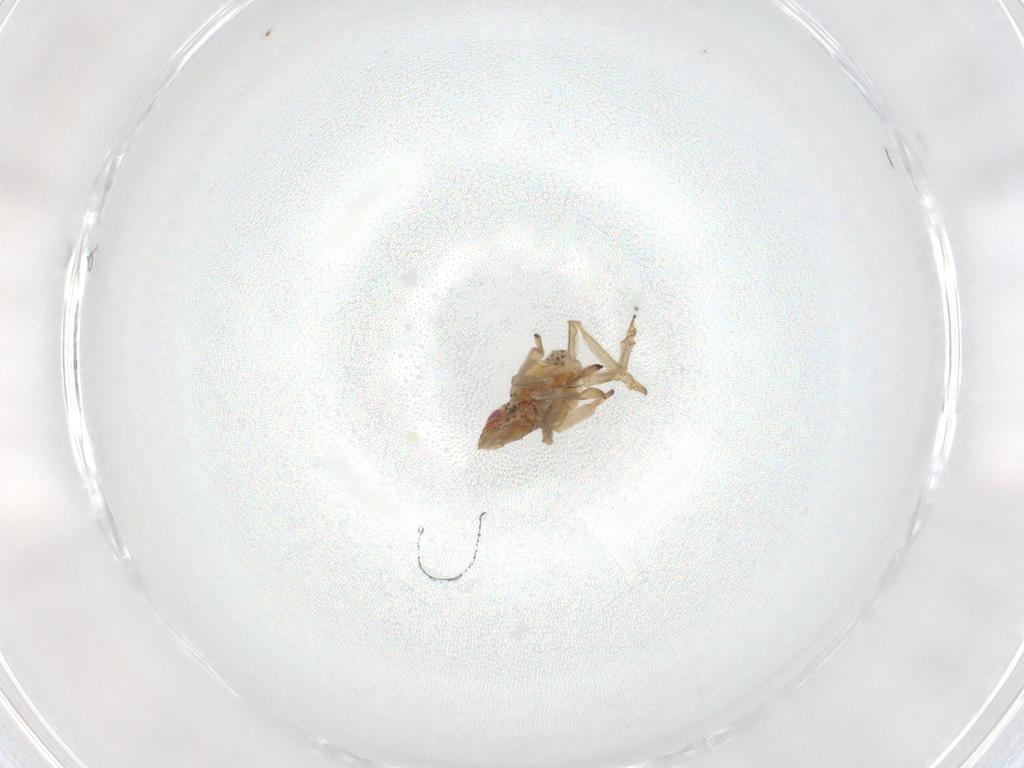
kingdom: Animalia
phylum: Arthropoda
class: Insecta
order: Hemiptera
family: Tropiduchidae
